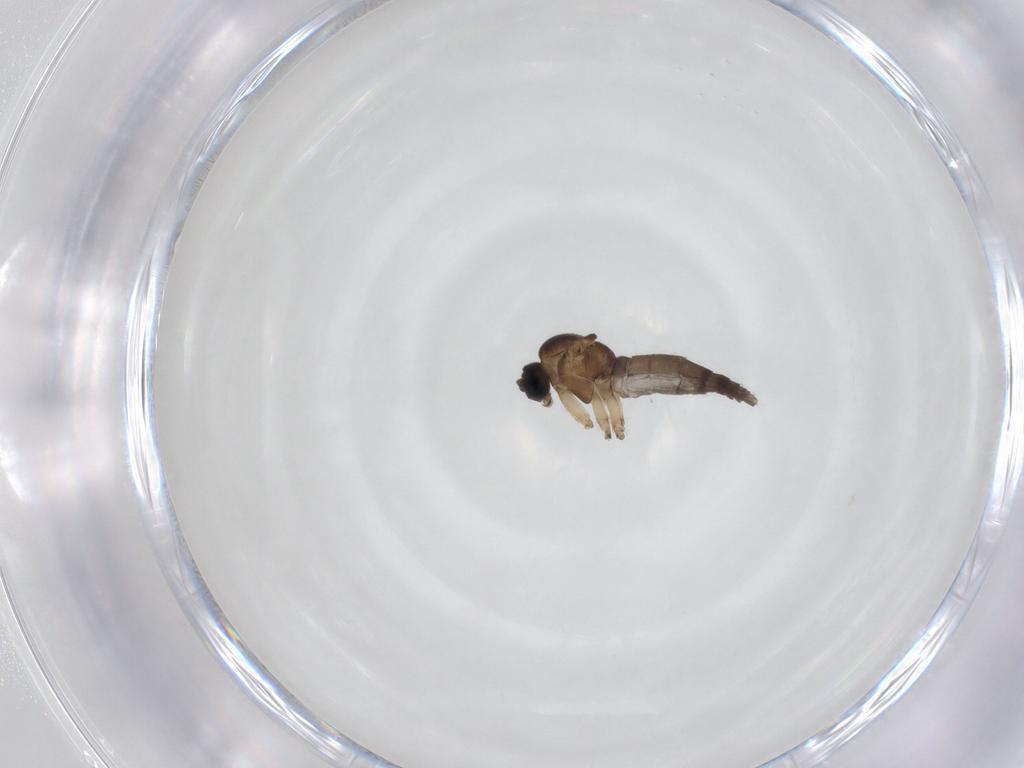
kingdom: Animalia
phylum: Arthropoda
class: Insecta
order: Diptera
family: Sciaridae
